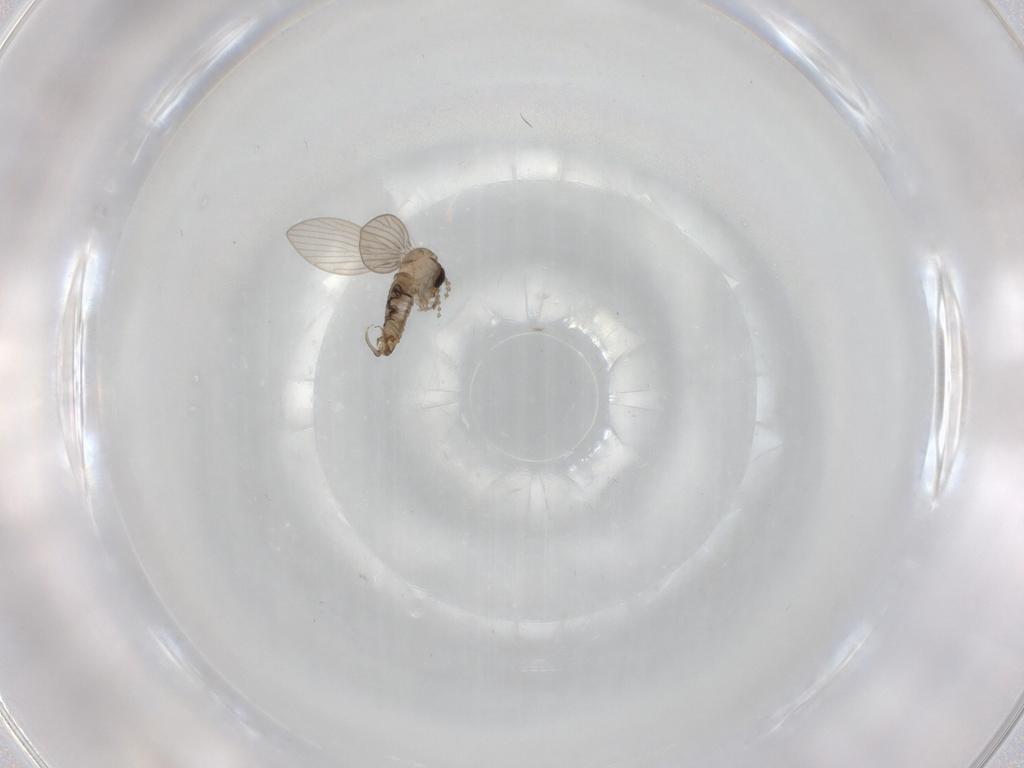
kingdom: Animalia
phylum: Arthropoda
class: Insecta
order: Diptera
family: Psychodidae
